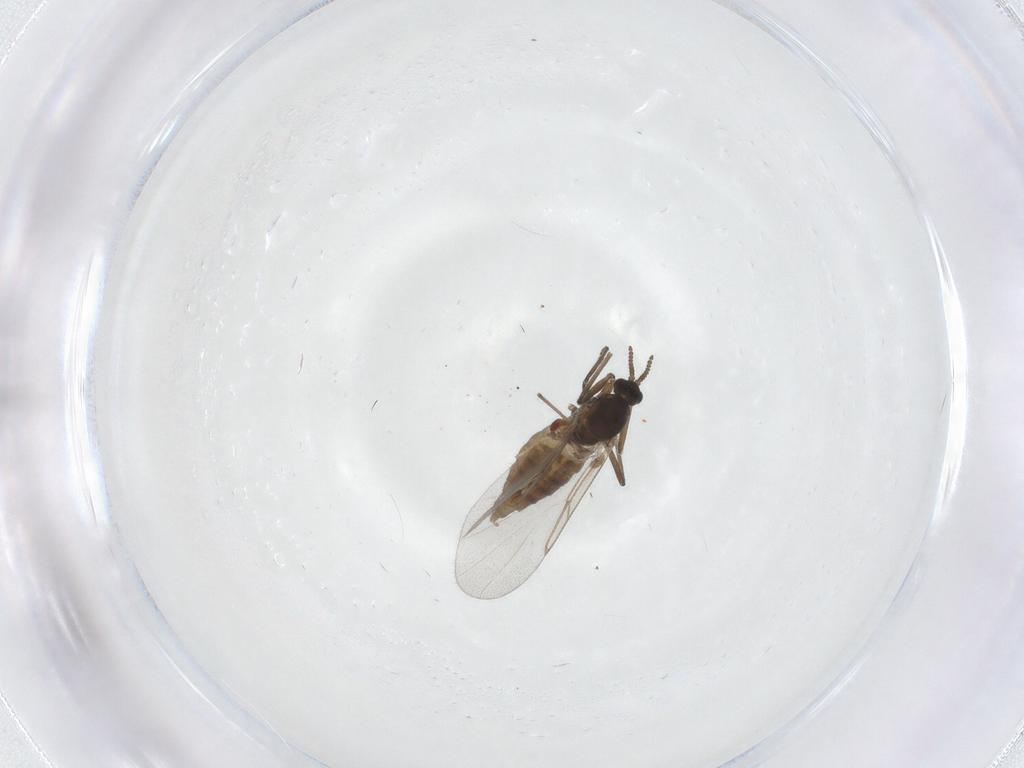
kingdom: Animalia
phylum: Arthropoda
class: Insecta
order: Diptera
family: Cecidomyiidae
